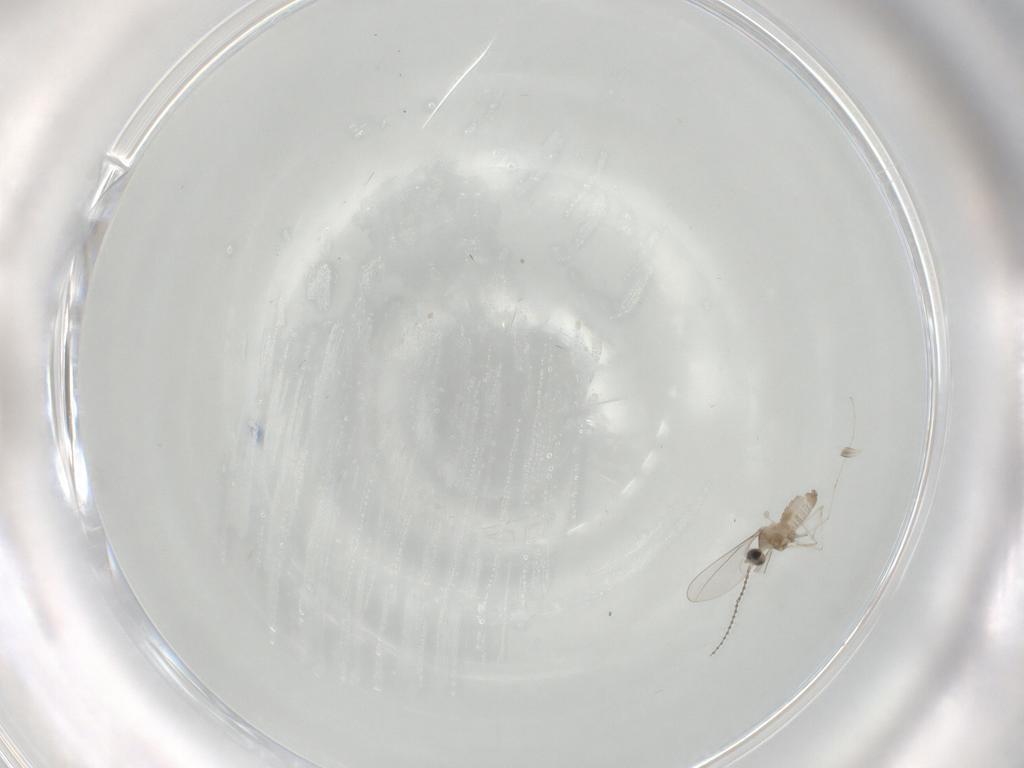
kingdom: Animalia
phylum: Arthropoda
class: Insecta
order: Diptera
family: Cecidomyiidae
